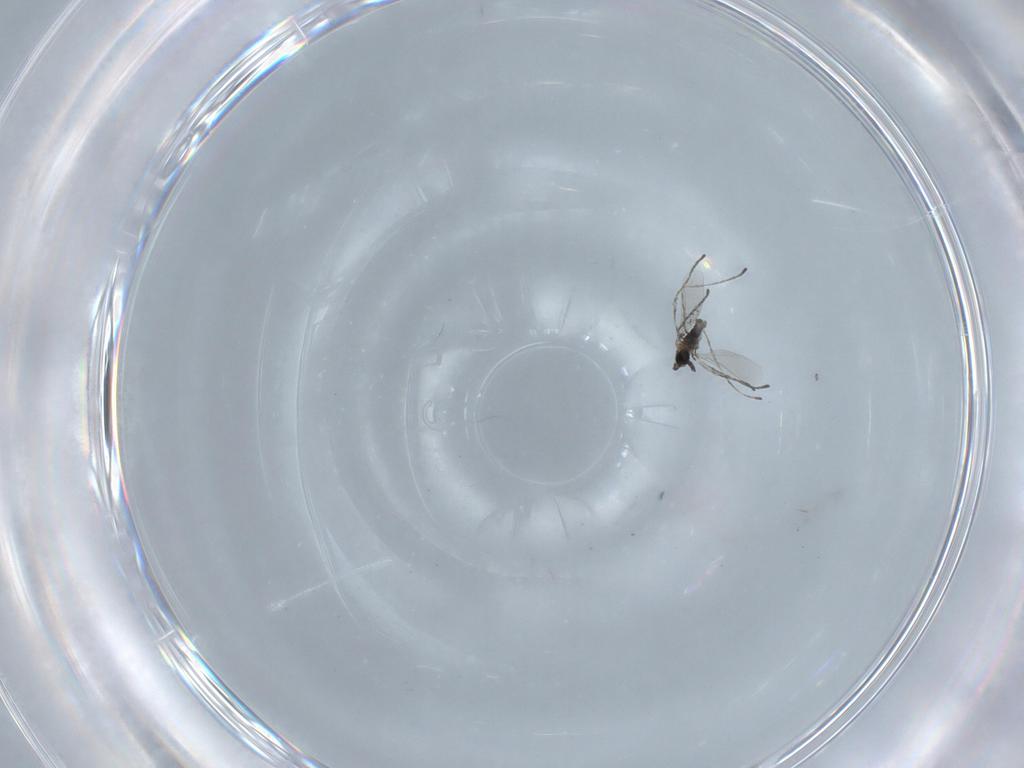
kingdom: Animalia
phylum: Arthropoda
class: Insecta
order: Diptera
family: Cecidomyiidae
